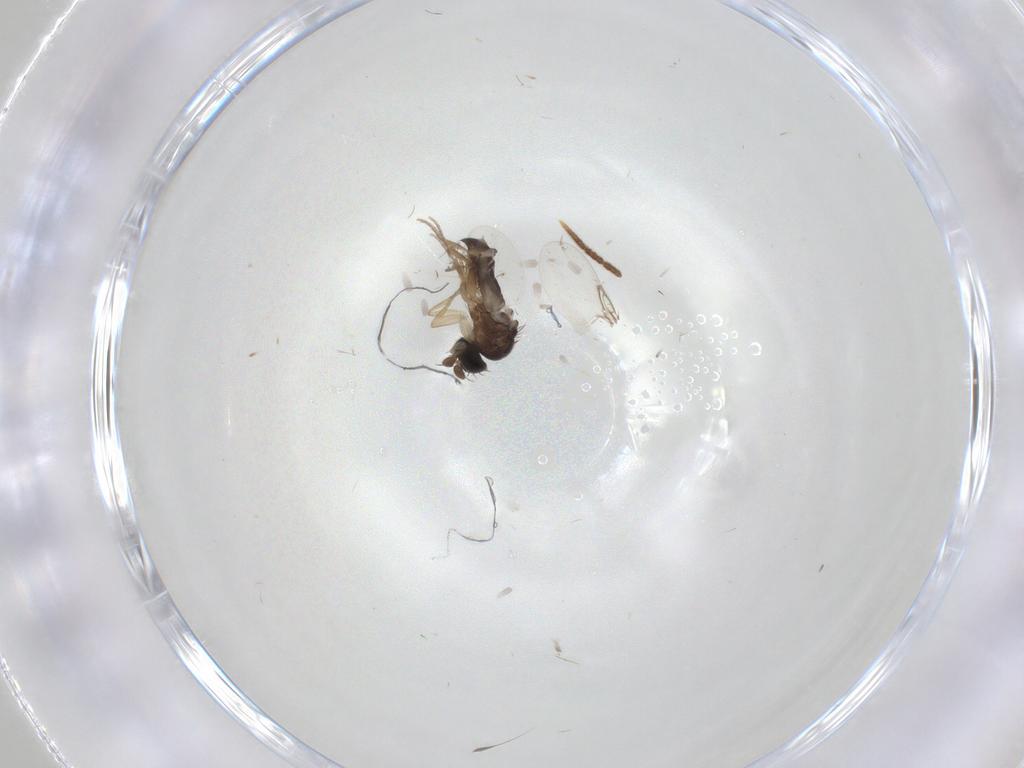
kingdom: Animalia
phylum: Arthropoda
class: Insecta
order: Diptera
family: Phoridae
